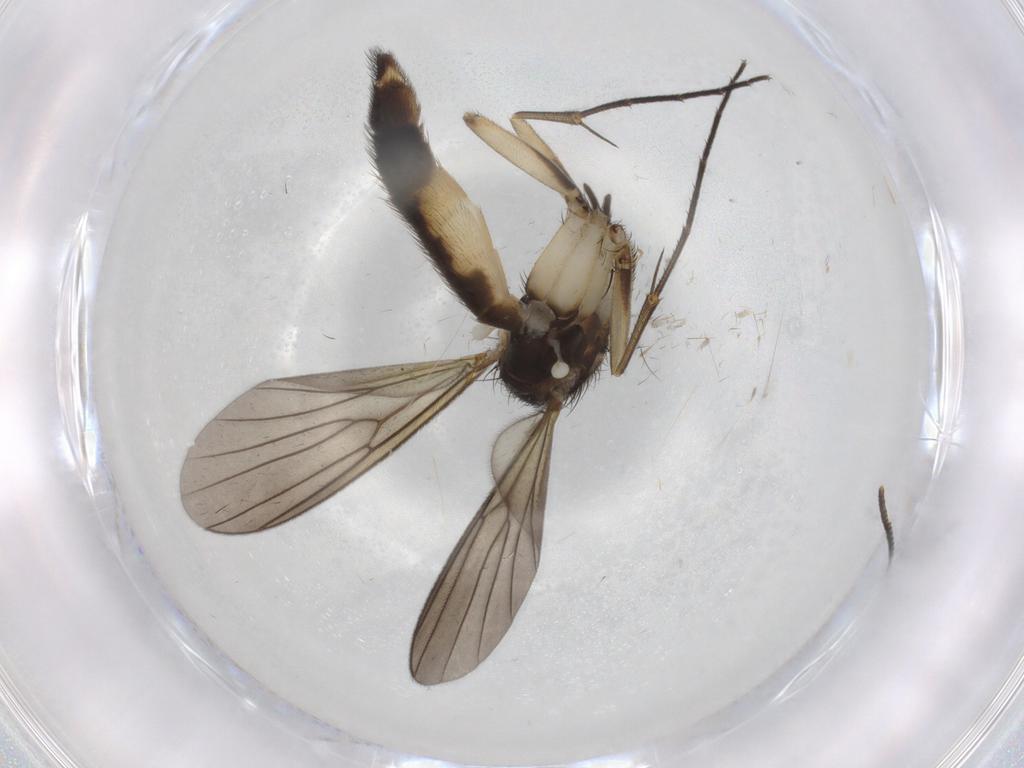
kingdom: Animalia
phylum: Arthropoda
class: Insecta
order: Diptera
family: Mycetophilidae
